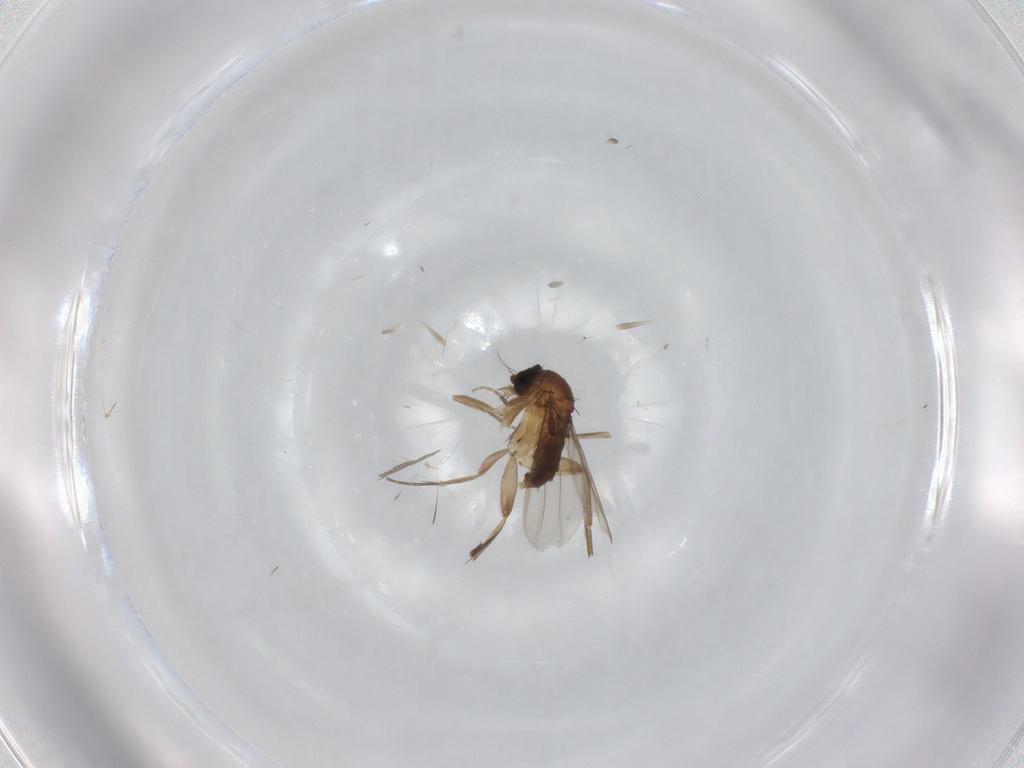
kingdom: Animalia
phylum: Arthropoda
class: Insecta
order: Diptera
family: Phoridae
